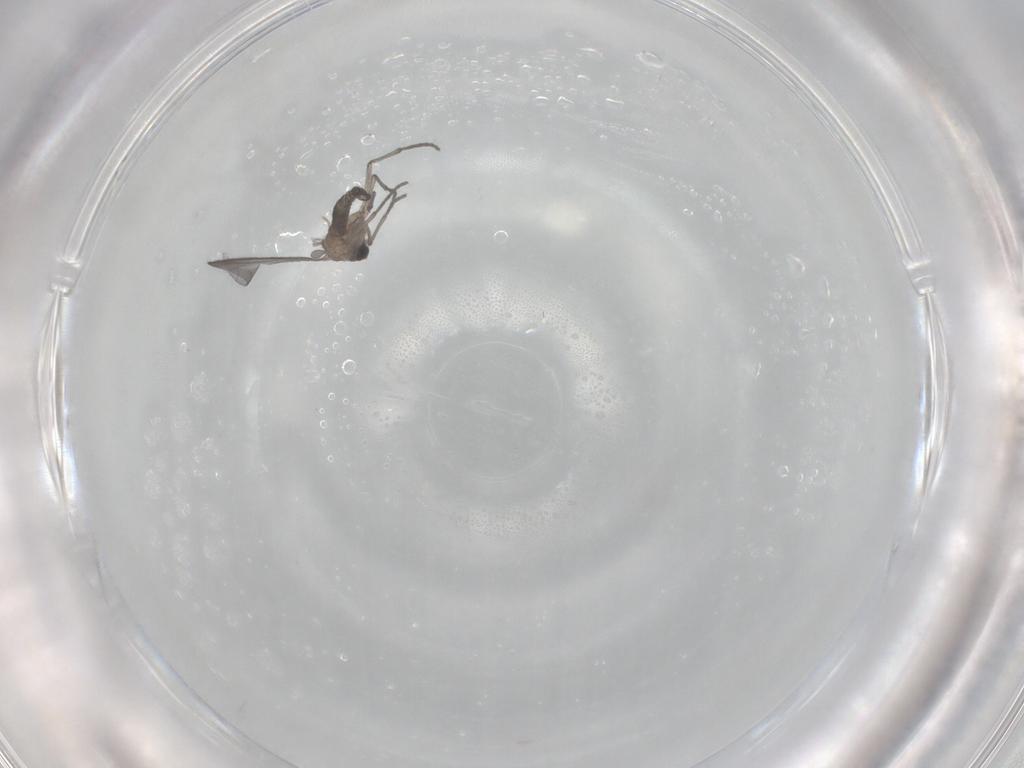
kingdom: Animalia
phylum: Arthropoda
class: Insecta
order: Diptera
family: Sciaridae
